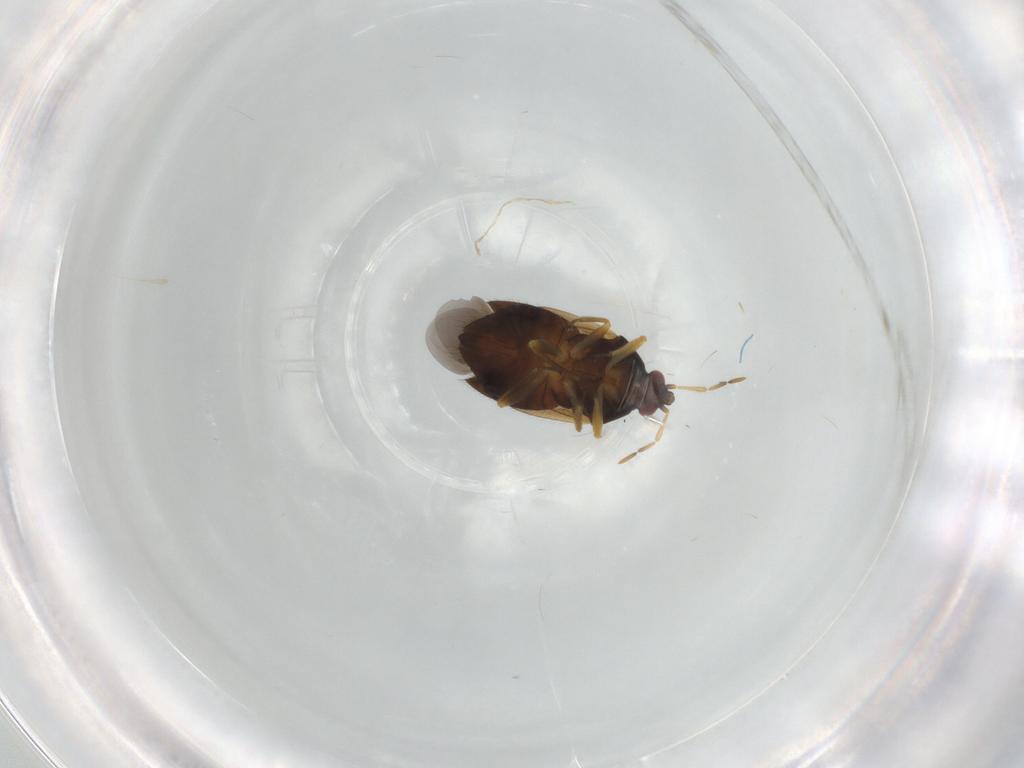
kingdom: Animalia
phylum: Arthropoda
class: Insecta
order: Hemiptera
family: Anthocoridae
